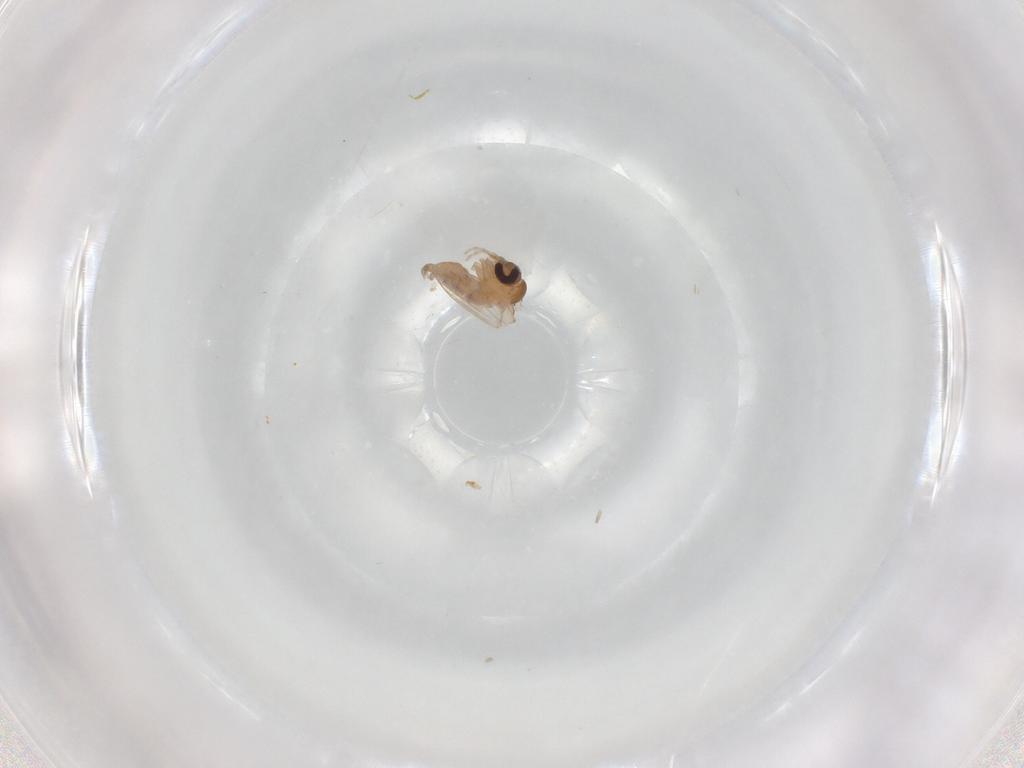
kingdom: Animalia
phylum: Arthropoda
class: Insecta
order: Diptera
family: Psychodidae
